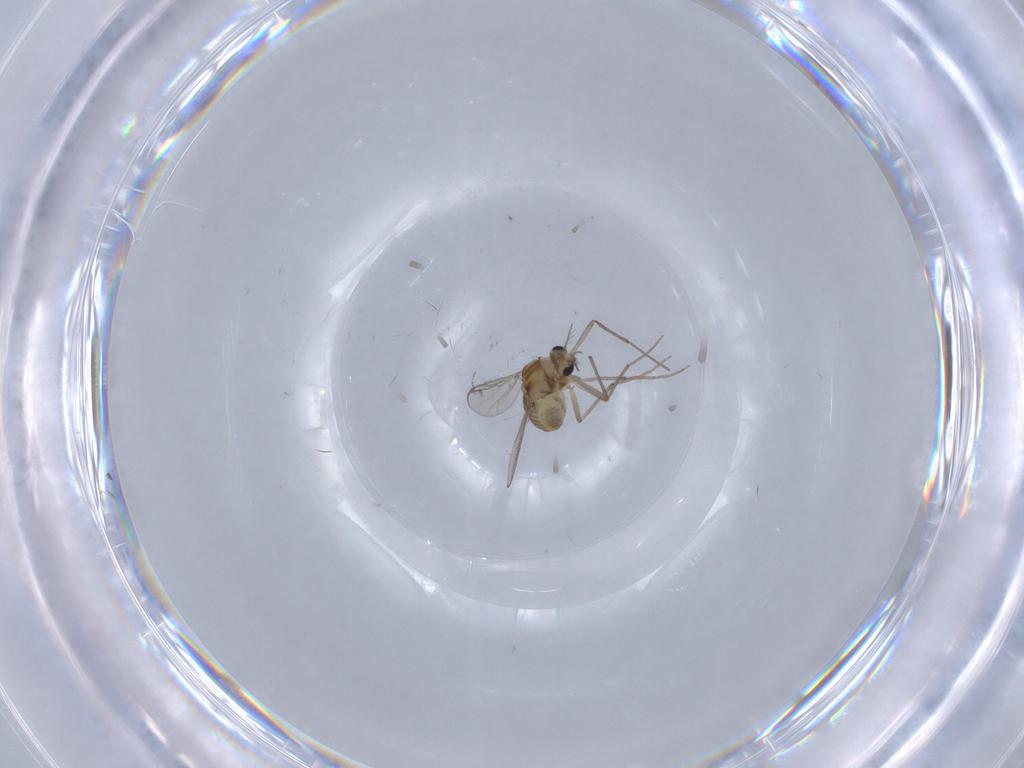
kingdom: Animalia
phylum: Arthropoda
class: Insecta
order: Diptera
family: Chironomidae
